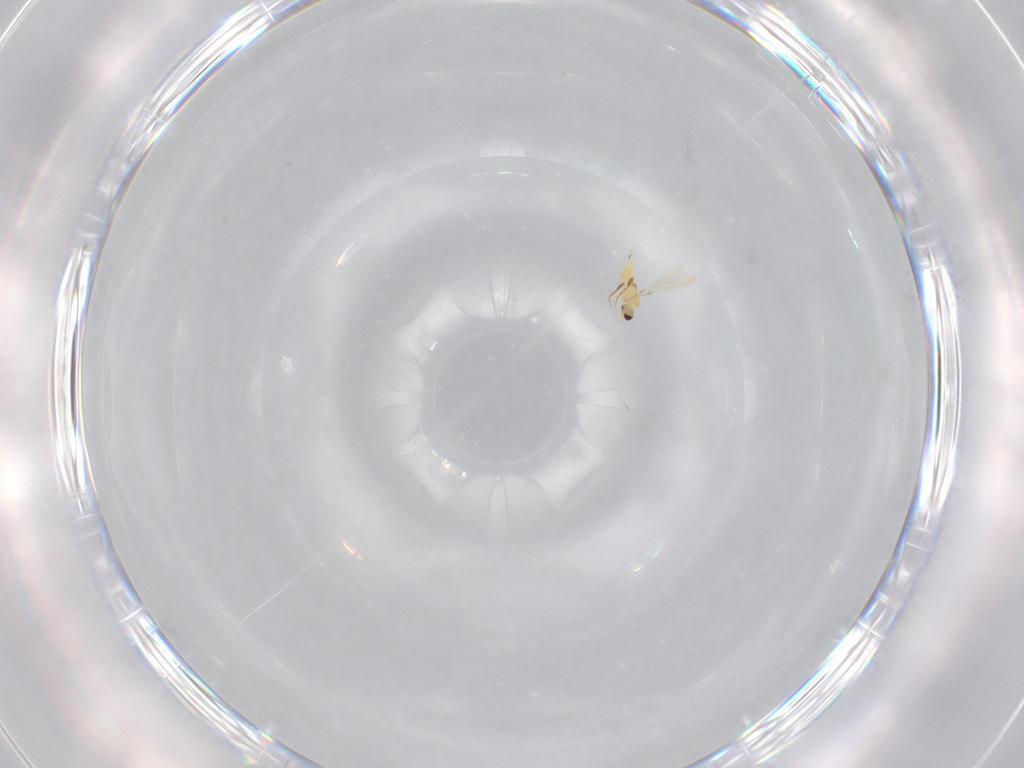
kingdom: Animalia
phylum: Arthropoda
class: Insecta
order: Hymenoptera
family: Mymaridae
